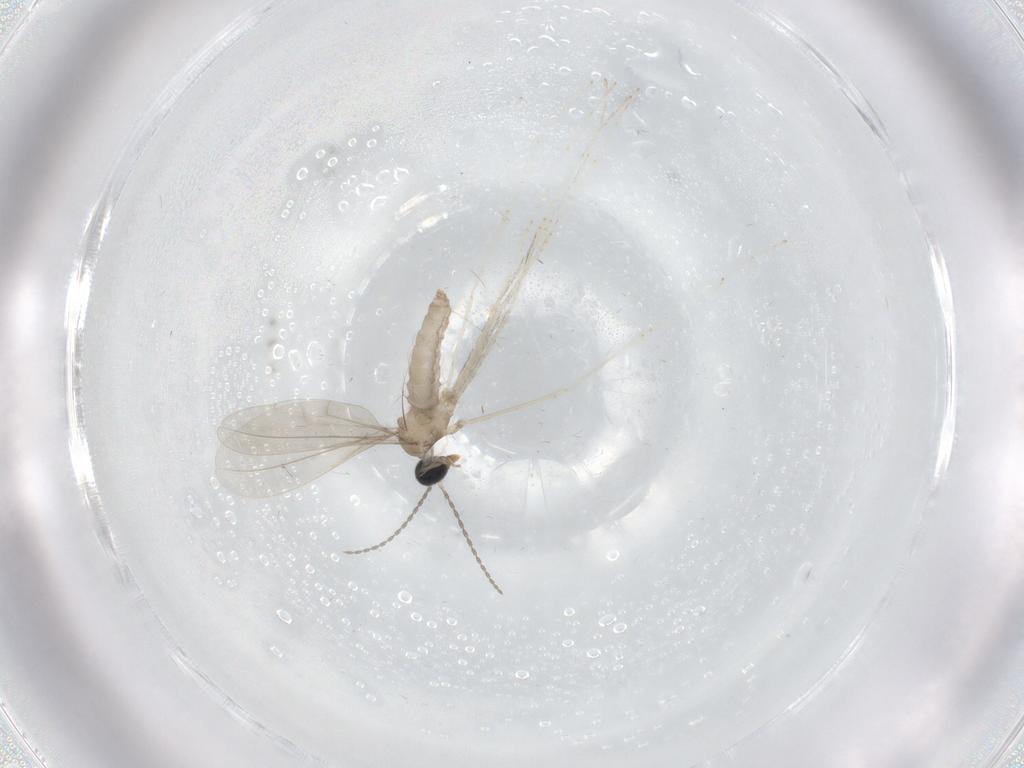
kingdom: Animalia
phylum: Arthropoda
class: Insecta
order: Diptera
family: Cecidomyiidae
